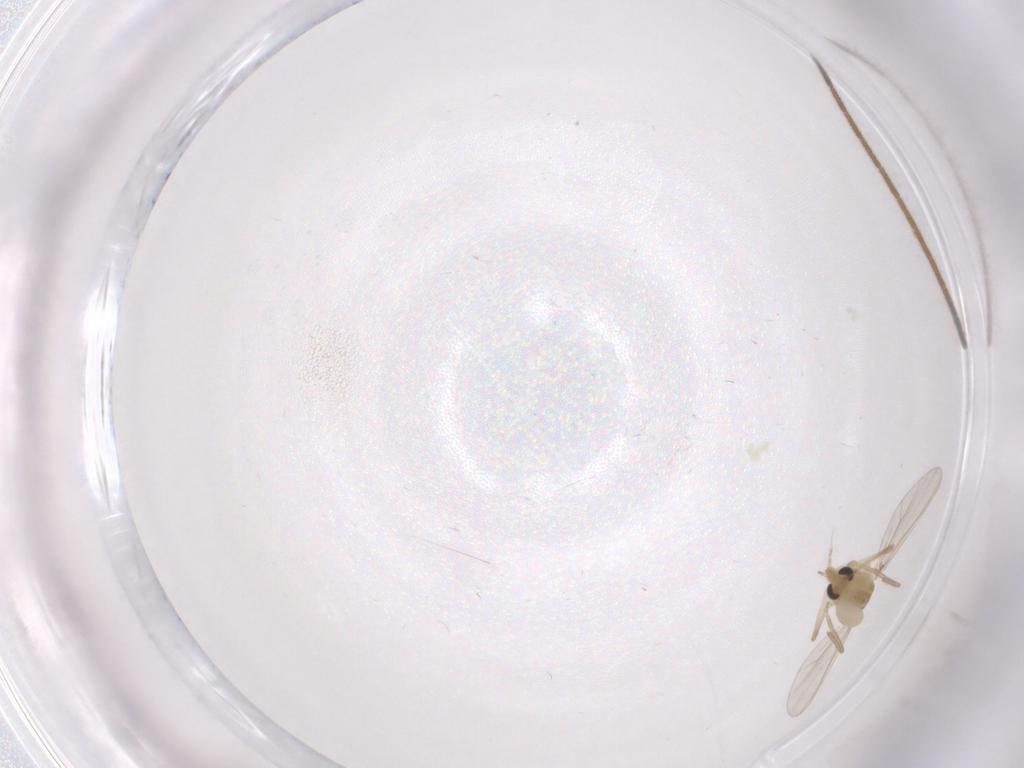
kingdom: Animalia
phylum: Arthropoda
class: Insecta
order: Diptera
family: Chironomidae
